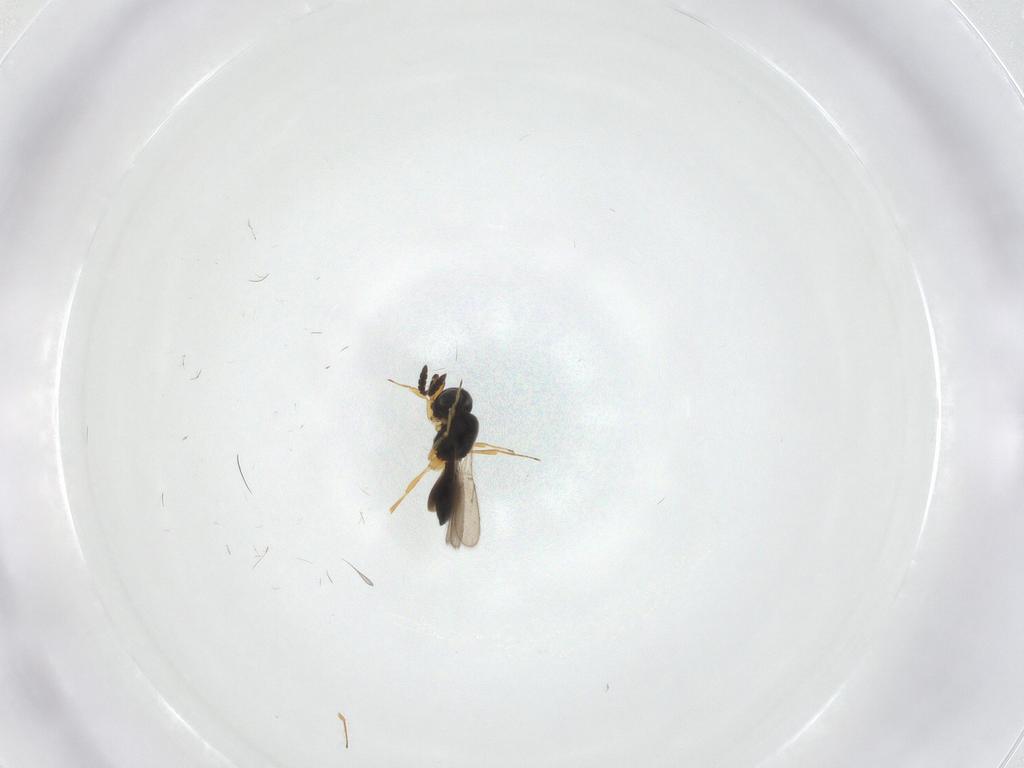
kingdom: Animalia
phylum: Arthropoda
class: Insecta
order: Hymenoptera
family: Scelionidae
